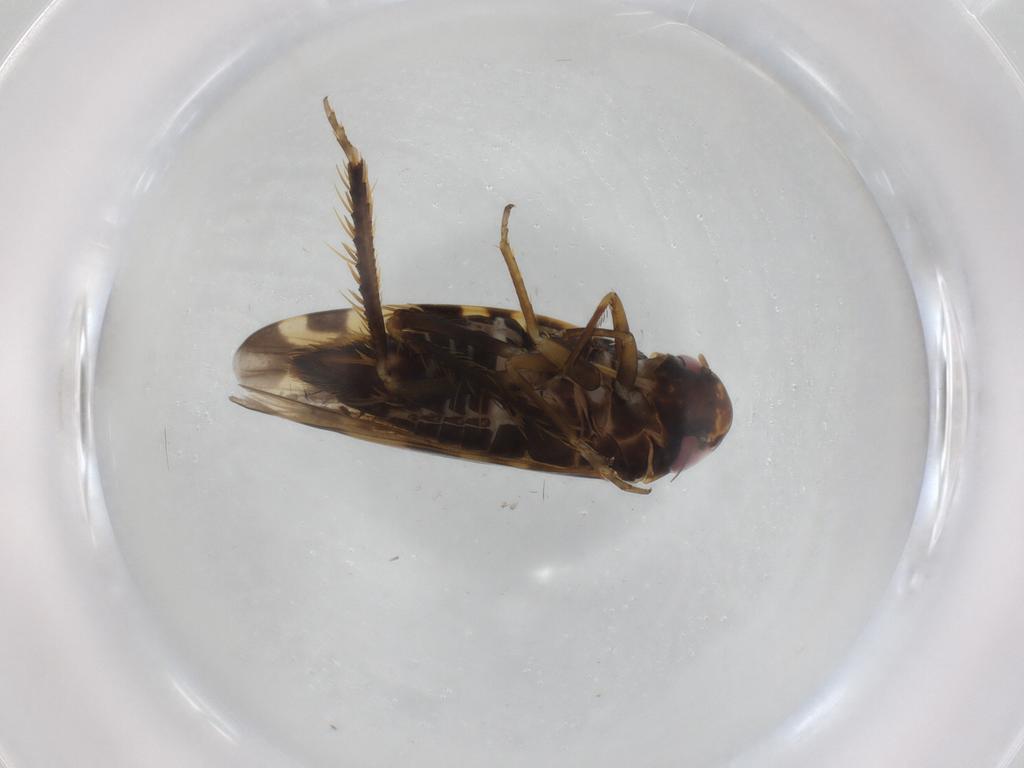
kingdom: Animalia
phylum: Arthropoda
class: Insecta
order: Hemiptera
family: Cicadellidae
